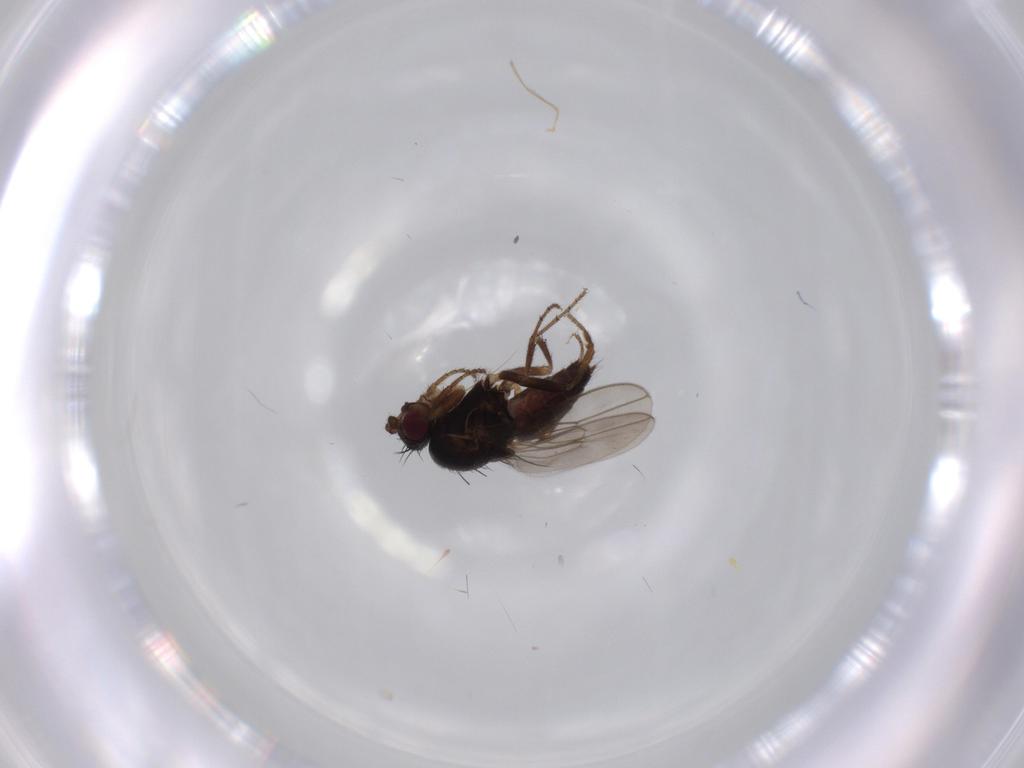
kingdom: Animalia
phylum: Arthropoda
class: Insecta
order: Diptera
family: Sphaeroceridae
